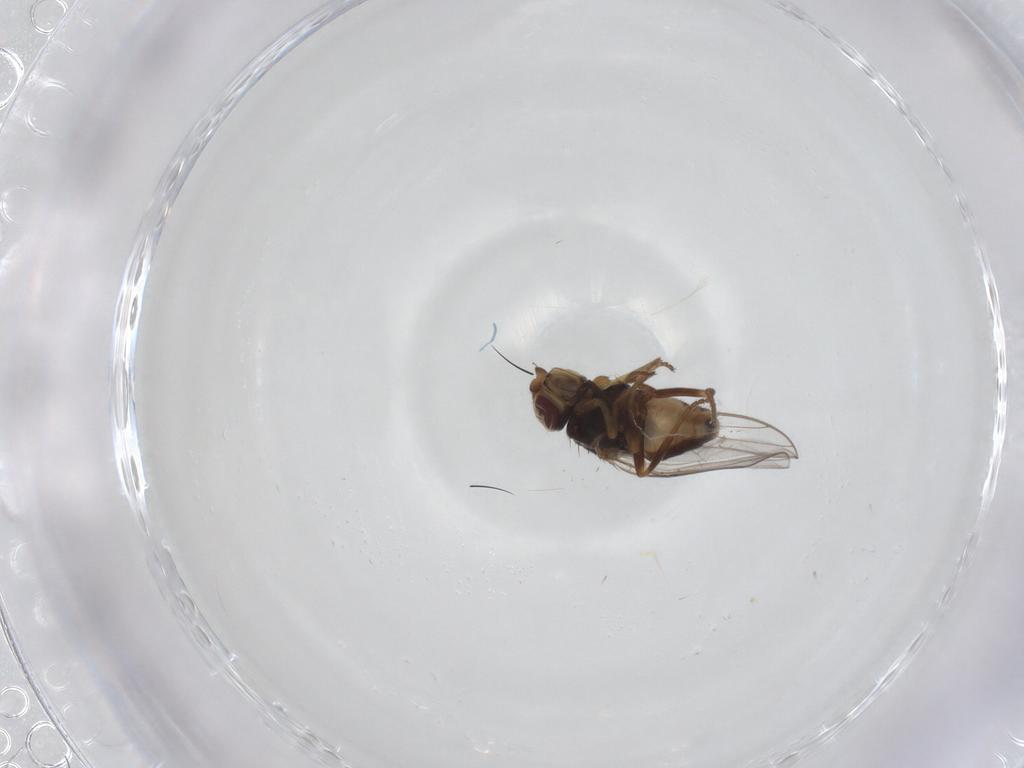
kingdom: Animalia
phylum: Arthropoda
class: Insecta
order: Diptera
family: Chloropidae
